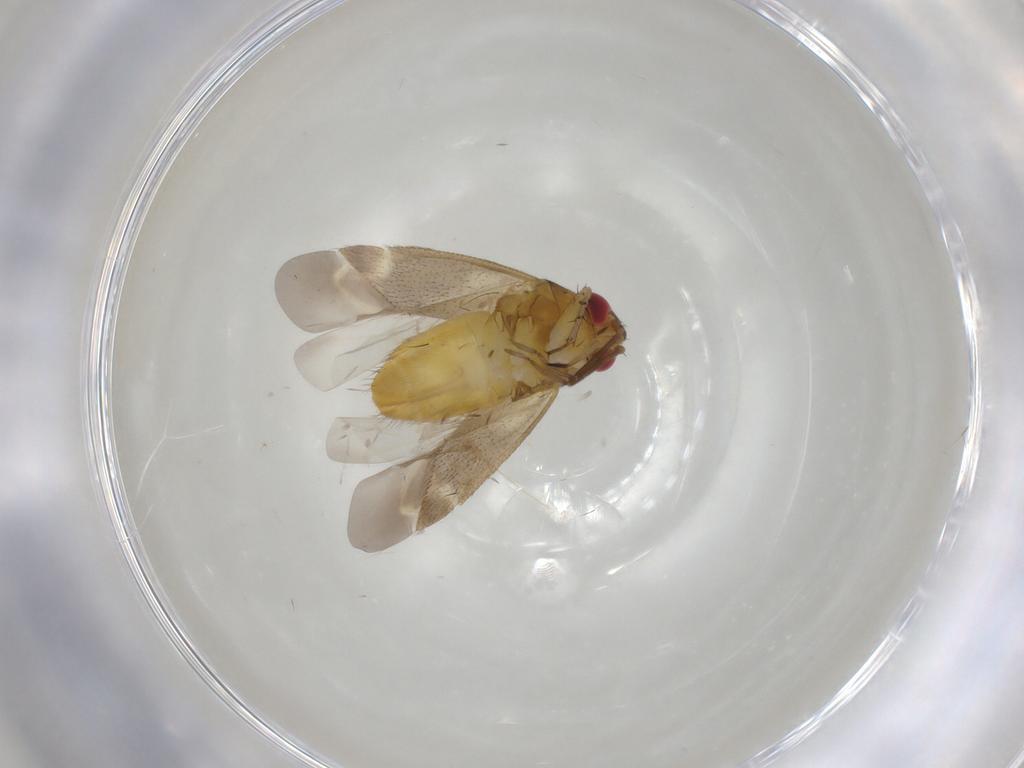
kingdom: Animalia
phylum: Arthropoda
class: Insecta
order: Hemiptera
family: Miridae
